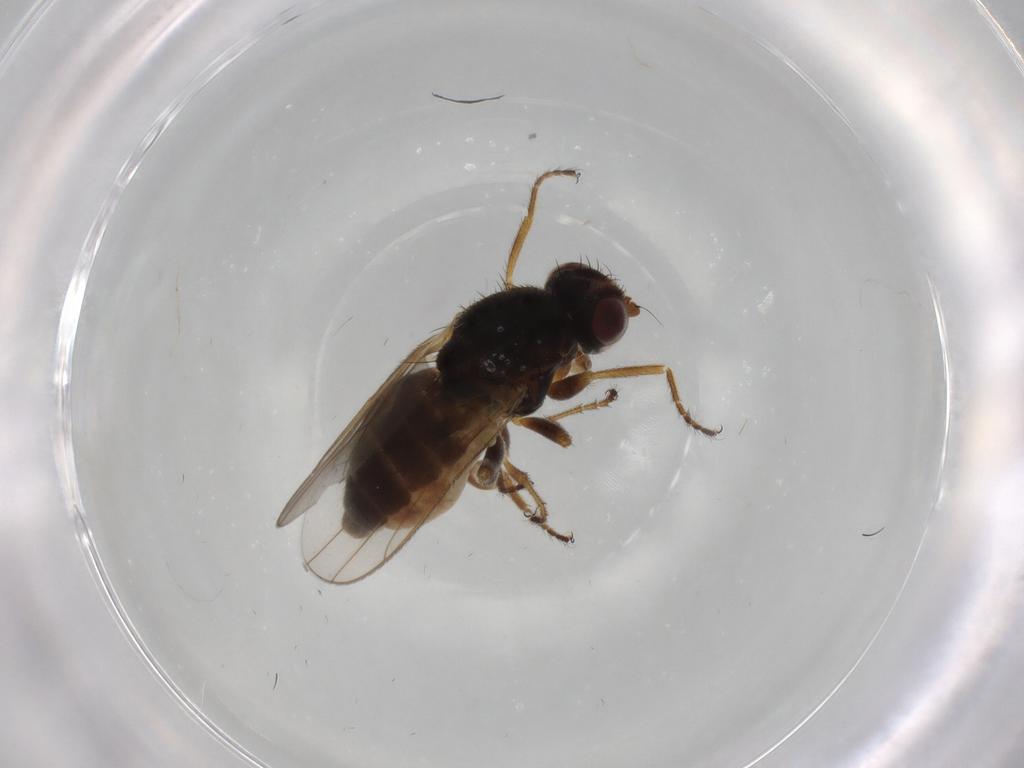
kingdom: Animalia
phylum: Arthropoda
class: Insecta
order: Diptera
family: Chloropidae
